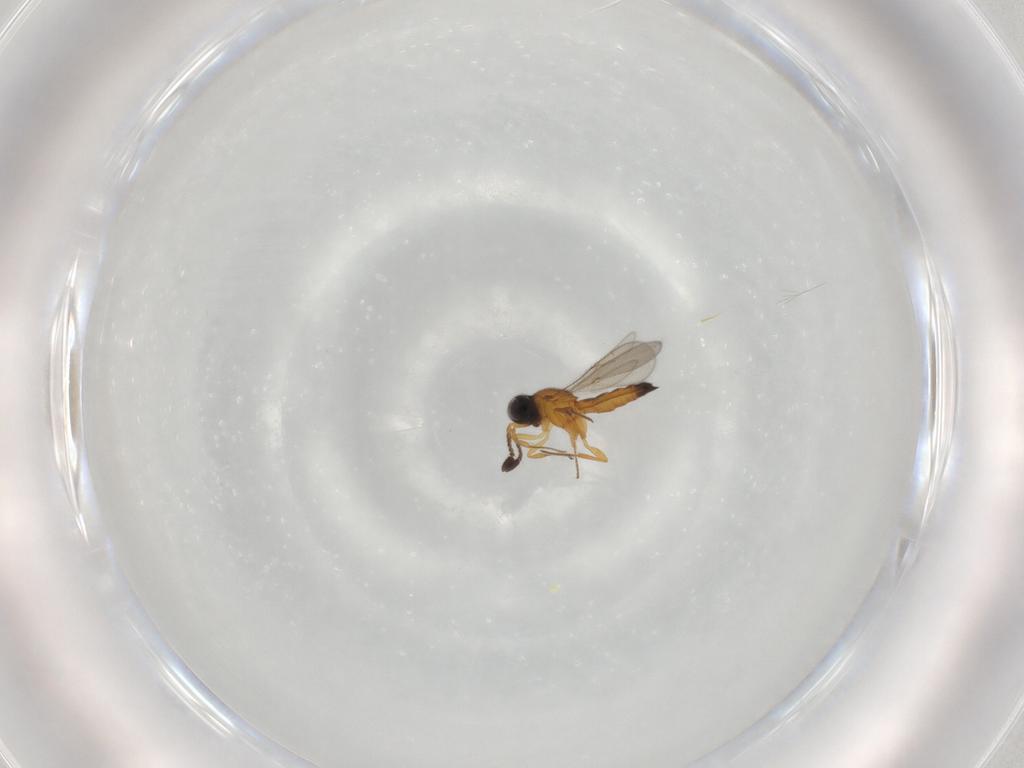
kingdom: Animalia
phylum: Arthropoda
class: Insecta
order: Hymenoptera
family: Scelionidae
